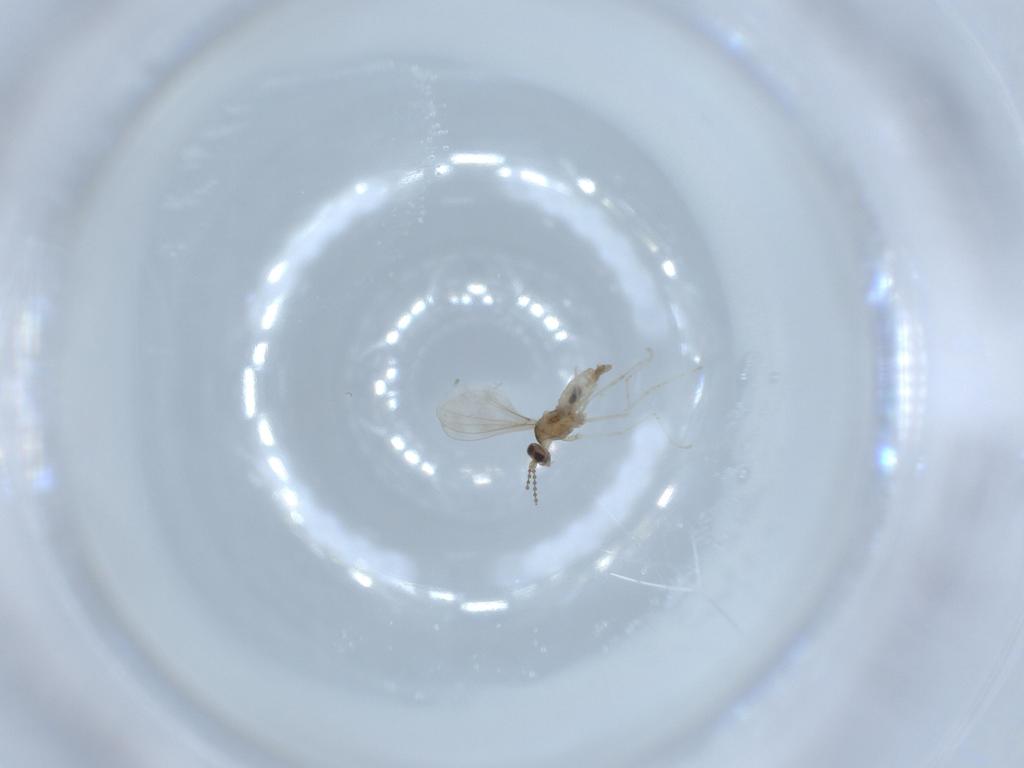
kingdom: Animalia
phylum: Arthropoda
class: Insecta
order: Diptera
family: Cecidomyiidae
